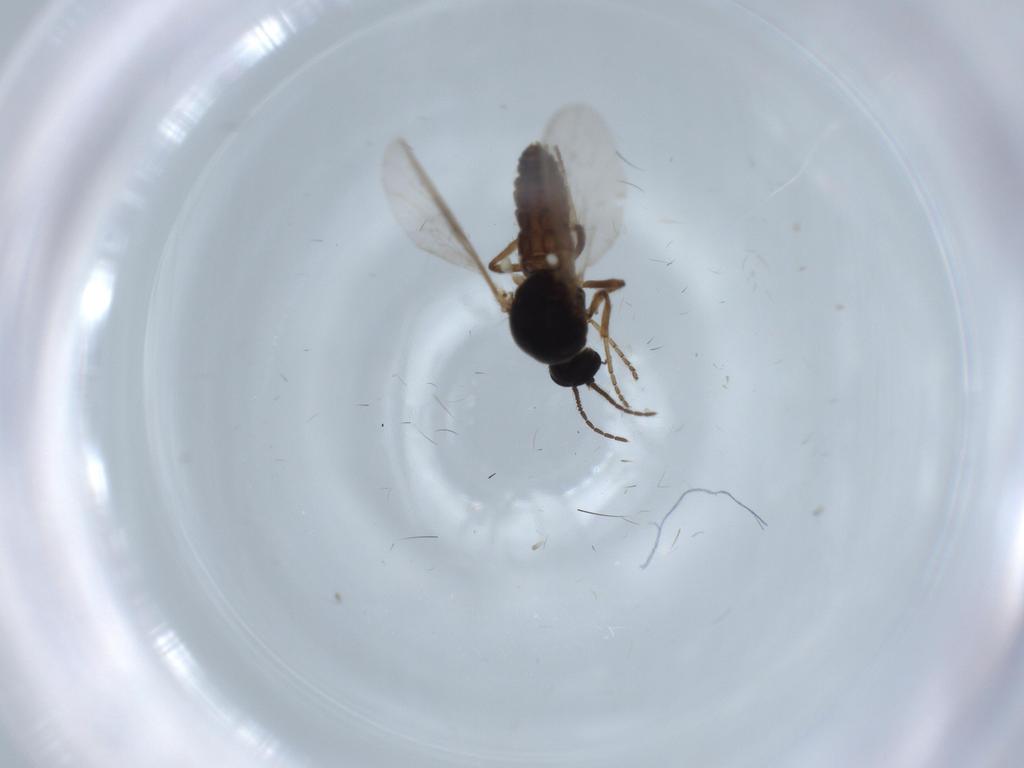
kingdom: Animalia
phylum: Arthropoda
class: Insecta
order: Diptera
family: Ceratopogonidae
